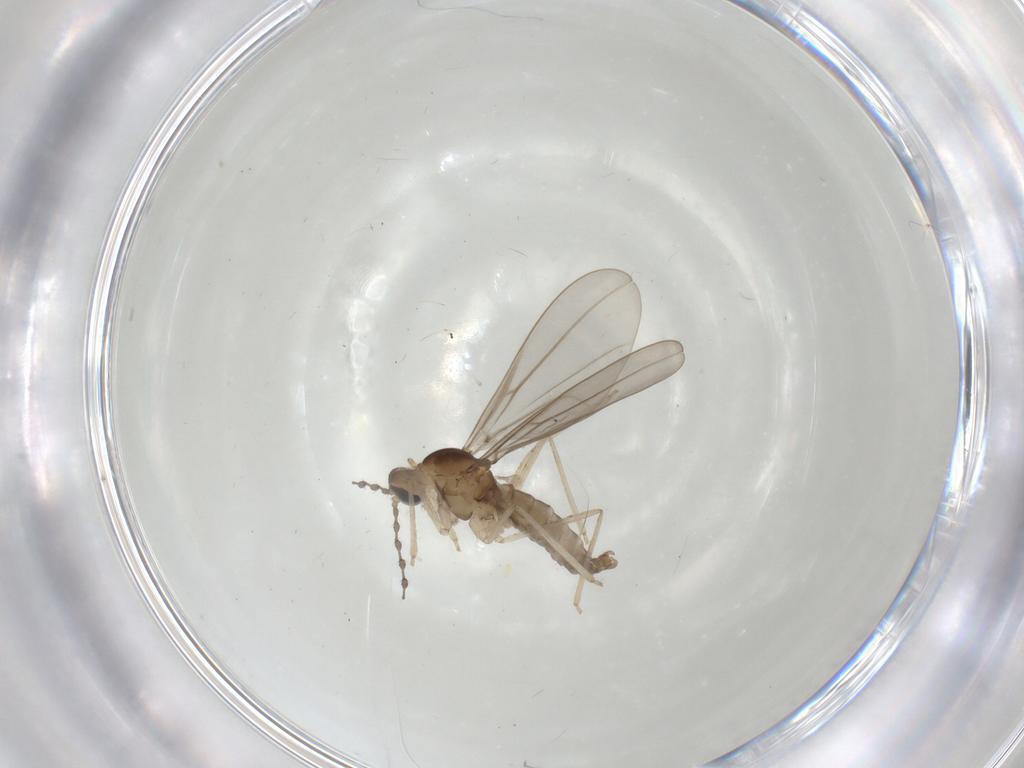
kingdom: Animalia
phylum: Arthropoda
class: Insecta
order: Diptera
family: Sciaridae
